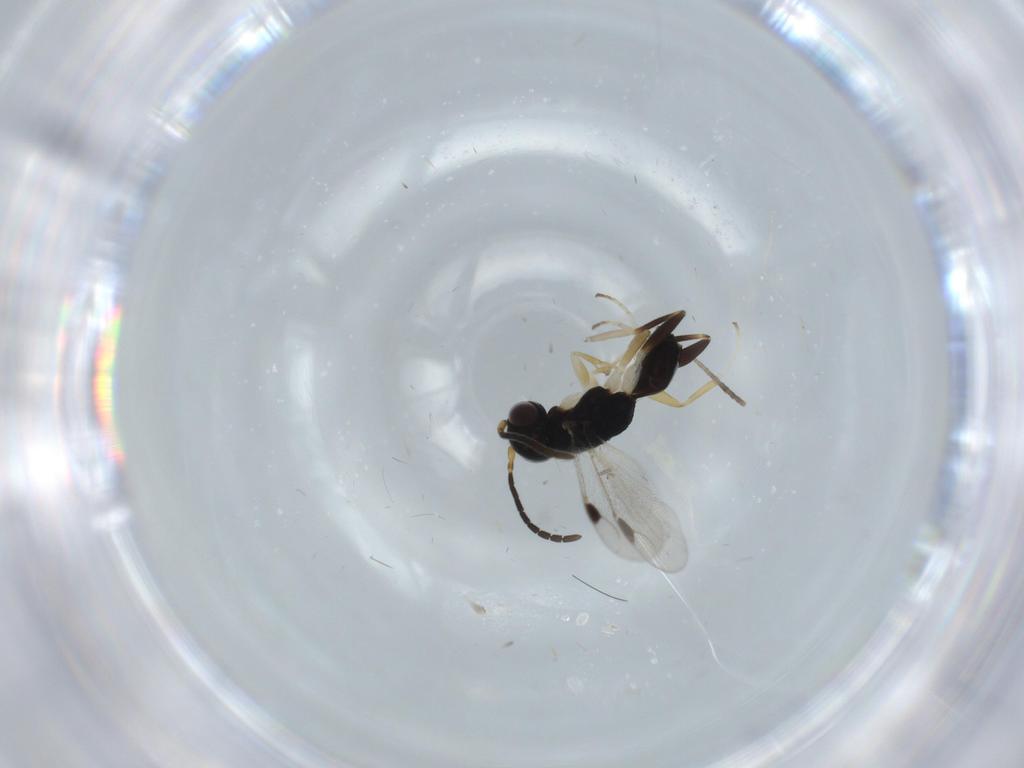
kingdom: Animalia
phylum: Arthropoda
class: Insecta
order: Hymenoptera
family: Dryinidae
